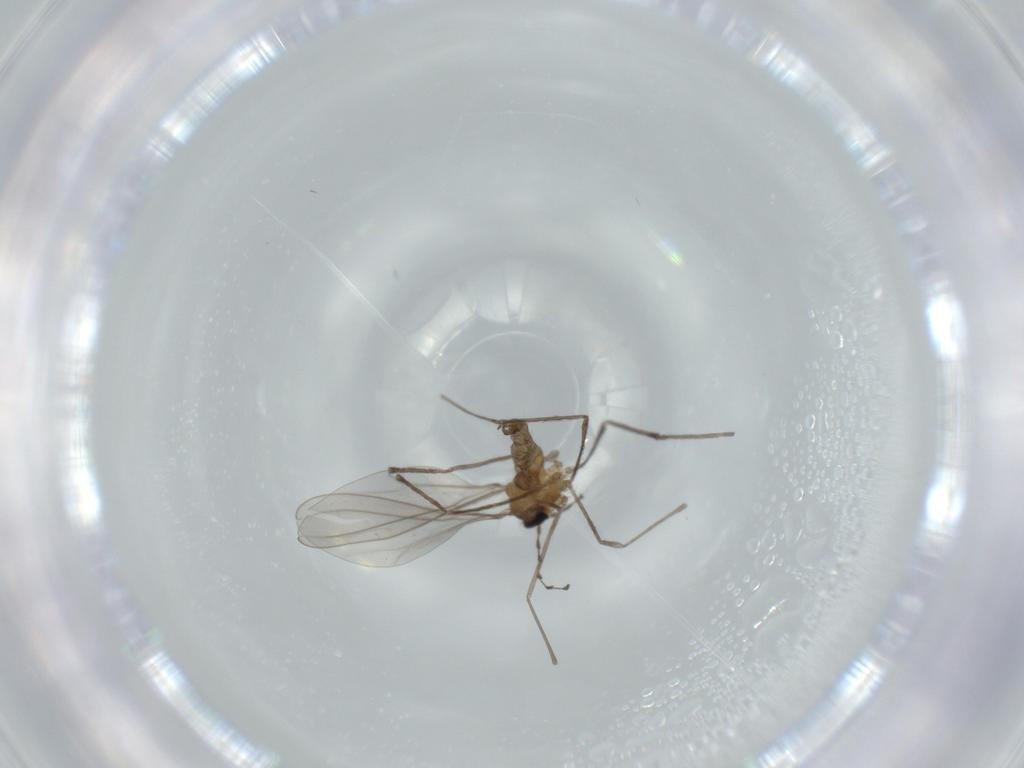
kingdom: Animalia
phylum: Arthropoda
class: Insecta
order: Diptera
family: Cecidomyiidae
